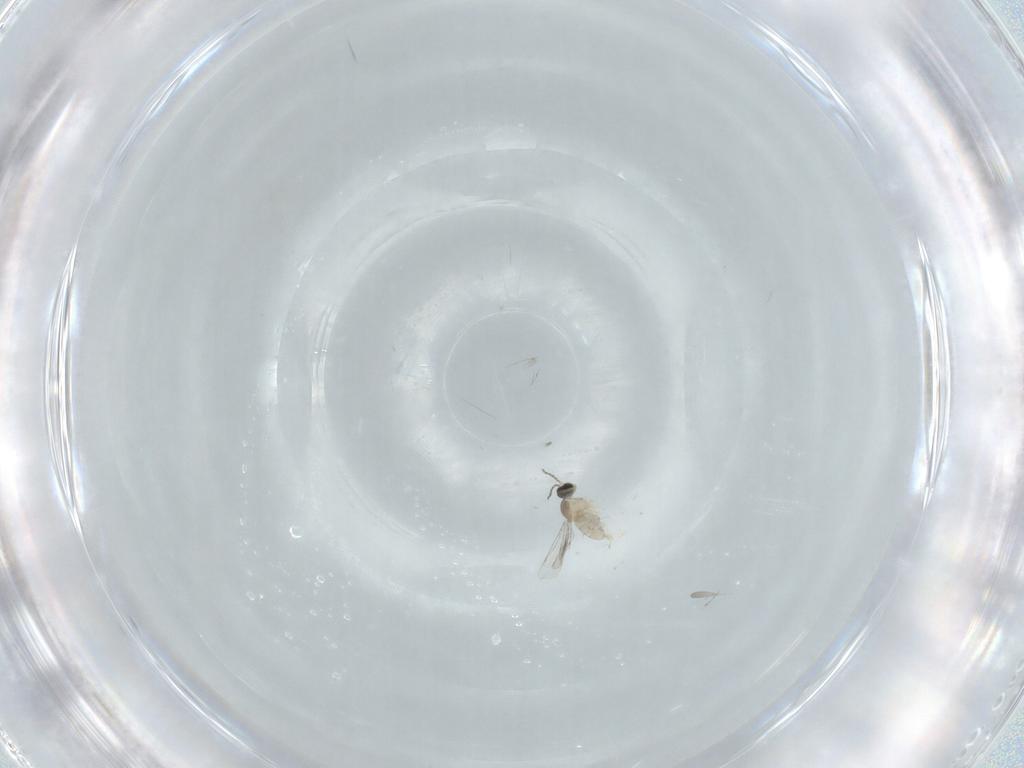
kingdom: Animalia
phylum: Arthropoda
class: Insecta
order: Diptera
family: Cecidomyiidae
